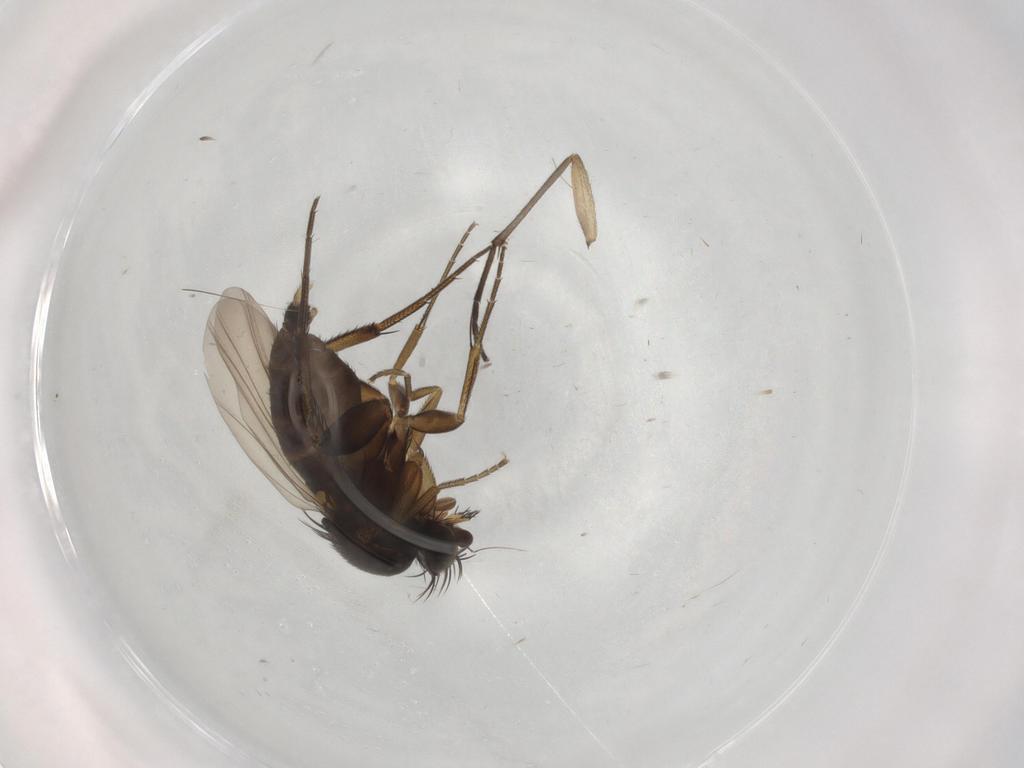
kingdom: Animalia
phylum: Arthropoda
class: Insecta
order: Diptera
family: Phoridae
